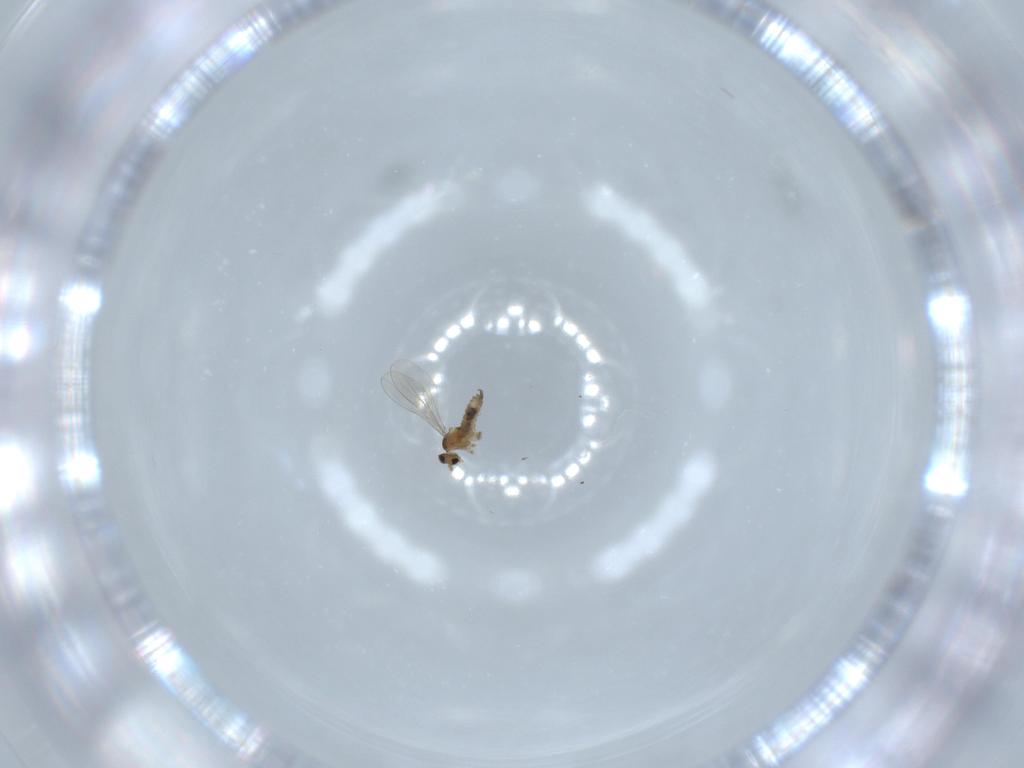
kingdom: Animalia
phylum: Arthropoda
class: Insecta
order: Diptera
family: Cecidomyiidae
